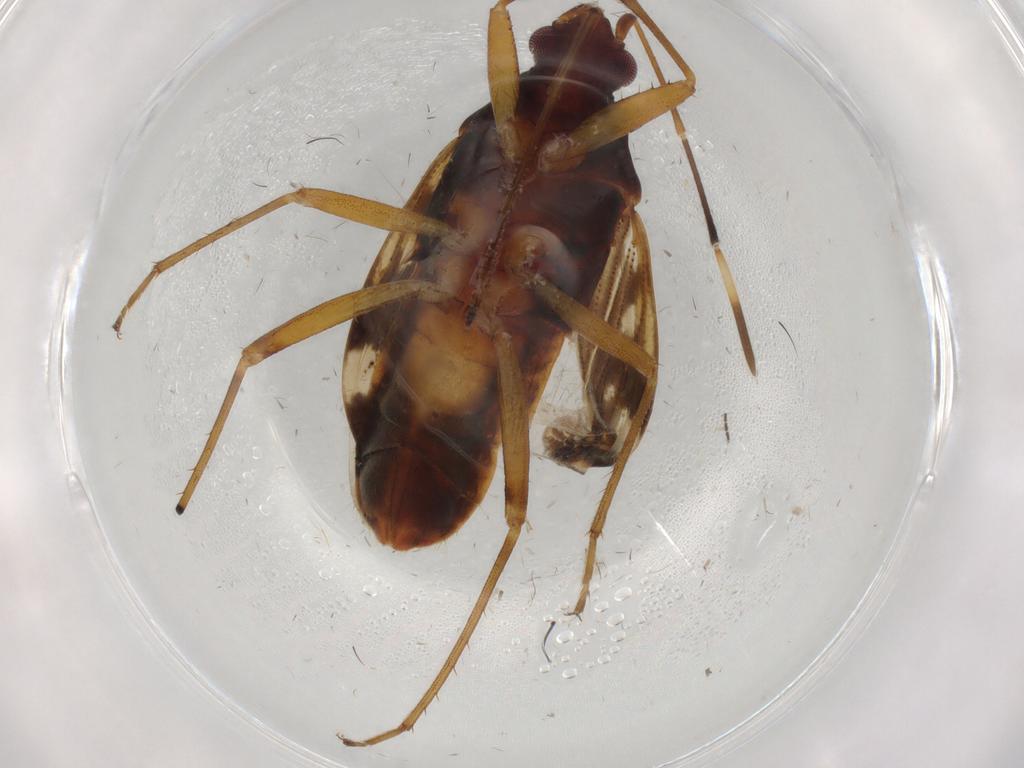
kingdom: Animalia
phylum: Arthropoda
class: Insecta
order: Hemiptera
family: Rhyparochromidae
